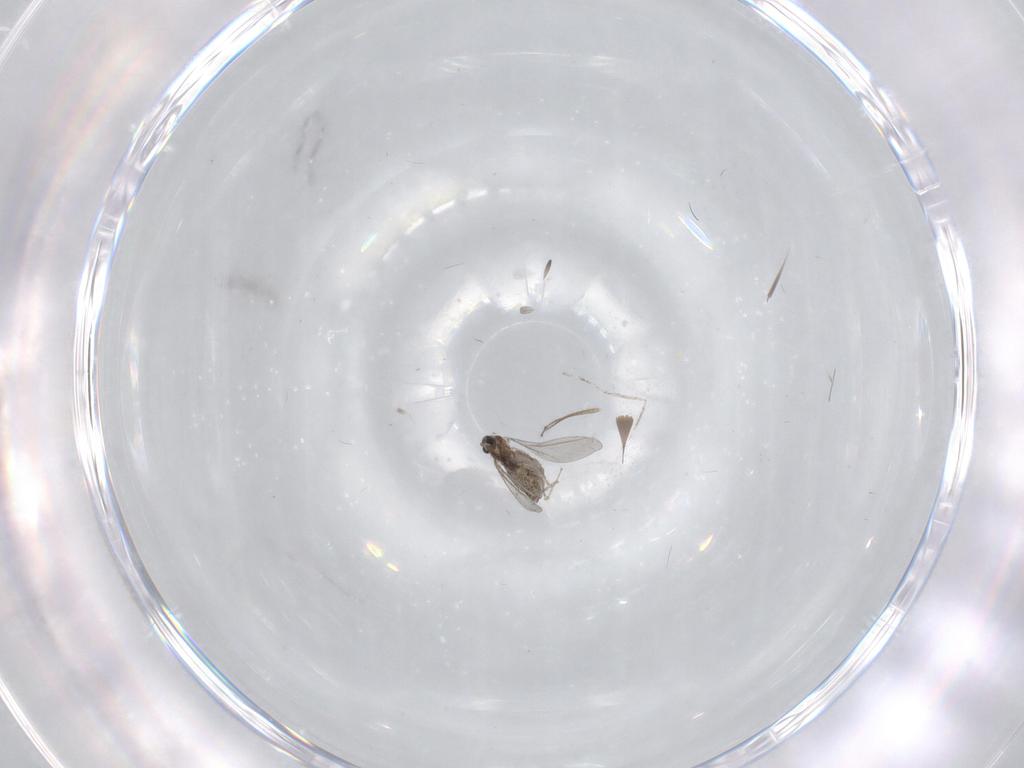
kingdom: Animalia
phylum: Arthropoda
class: Insecta
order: Diptera
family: Cecidomyiidae
